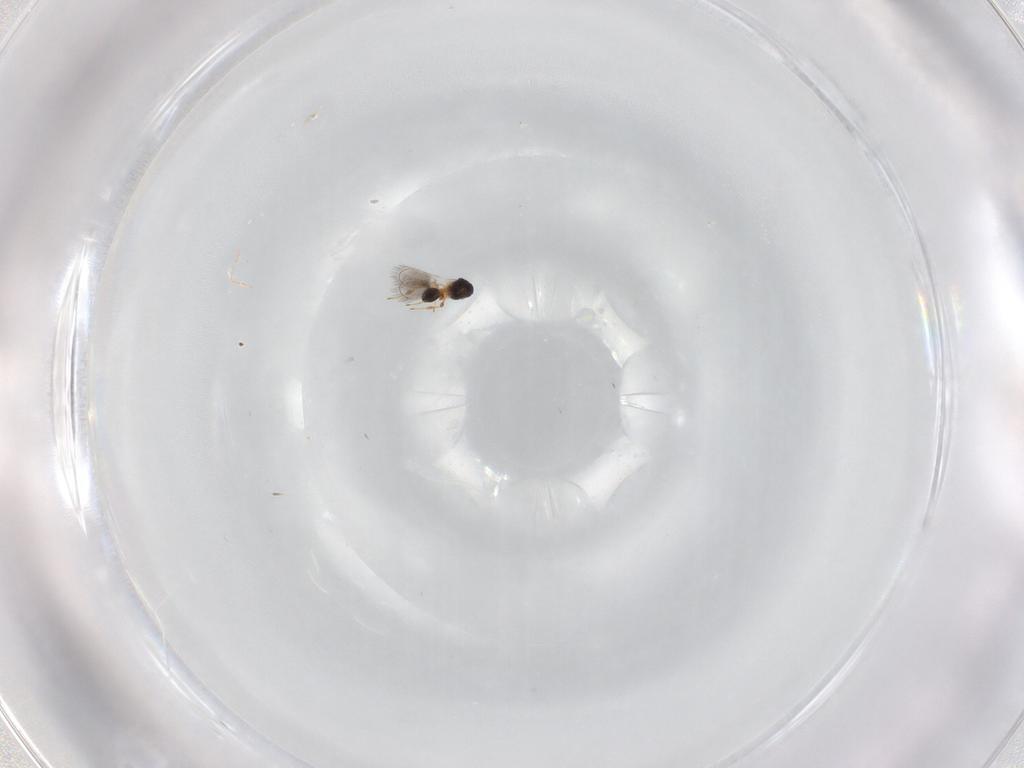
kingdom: Animalia
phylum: Arthropoda
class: Insecta
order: Hymenoptera
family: Platygastridae
